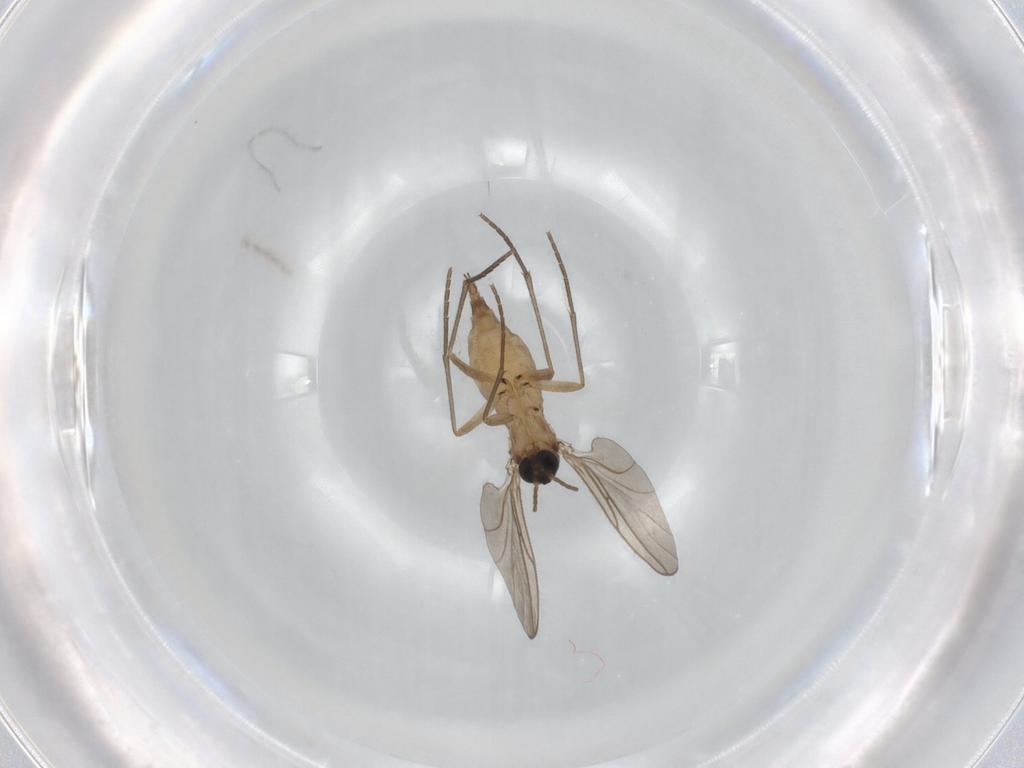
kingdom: Animalia
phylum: Arthropoda
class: Insecta
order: Diptera
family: Sciaridae
